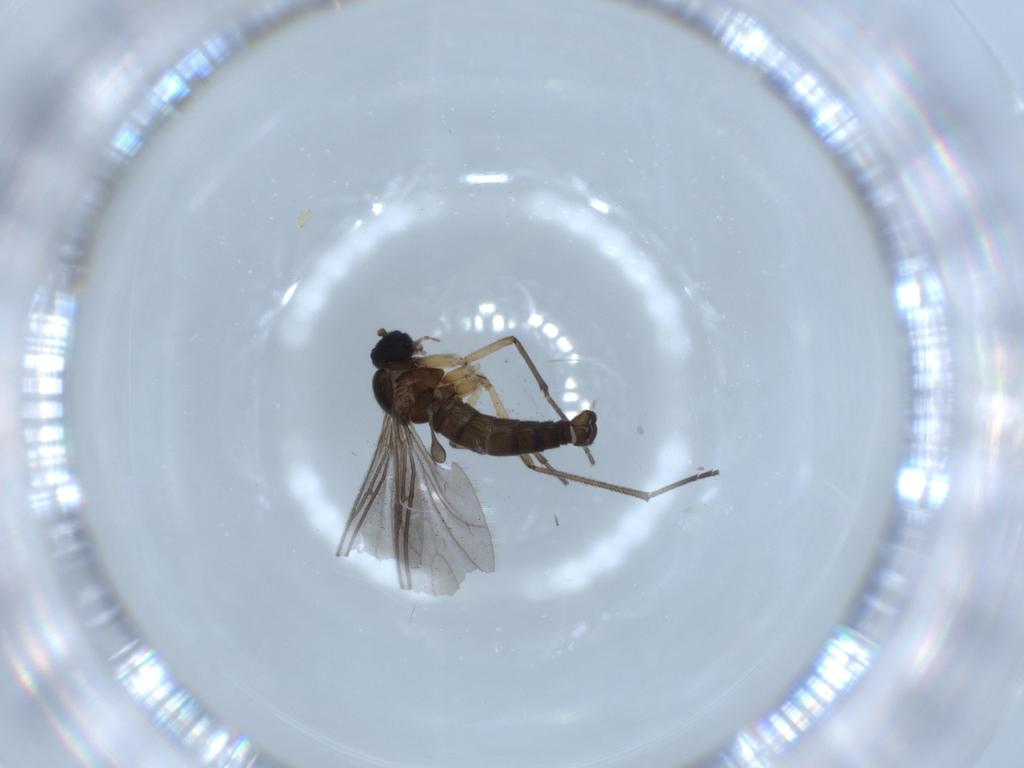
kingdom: Animalia
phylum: Arthropoda
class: Insecta
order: Diptera
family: Sciaridae
